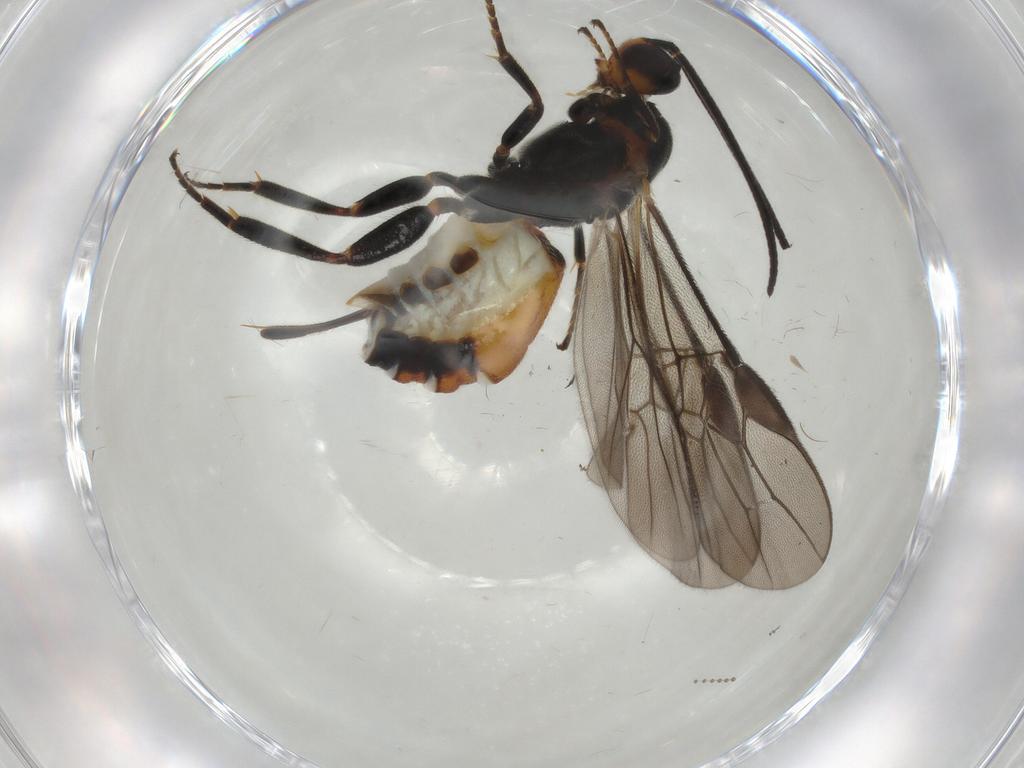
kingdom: Animalia
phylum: Arthropoda
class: Insecta
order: Hymenoptera
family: Braconidae
